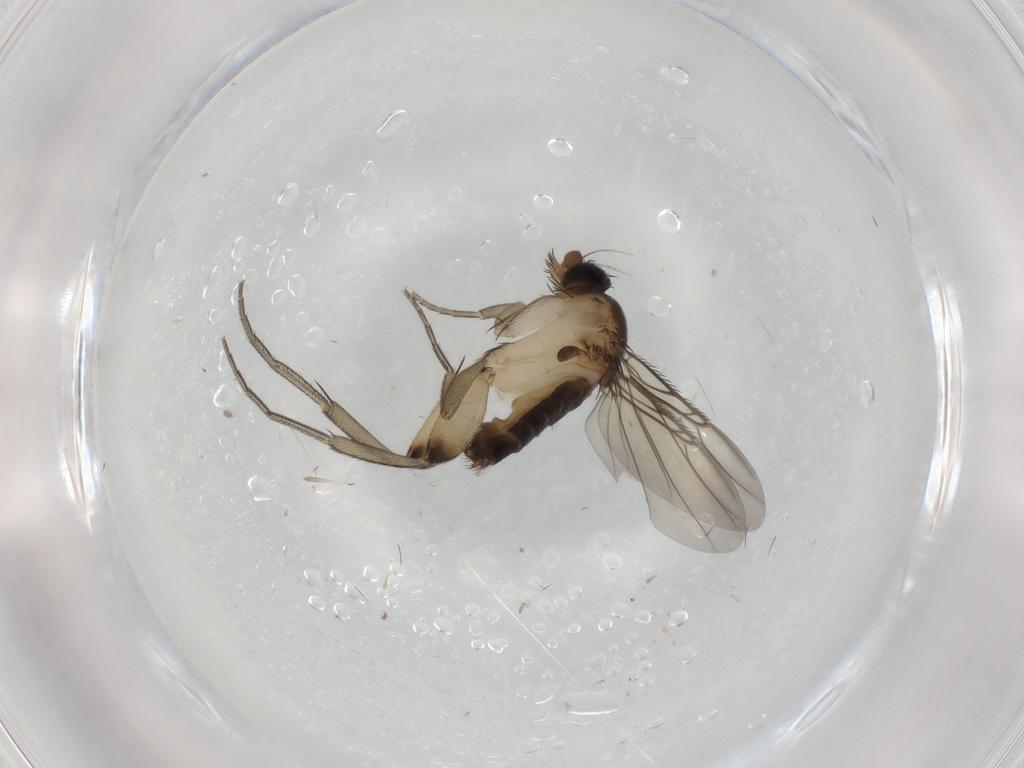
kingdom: Animalia
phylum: Arthropoda
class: Insecta
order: Diptera
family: Phoridae
